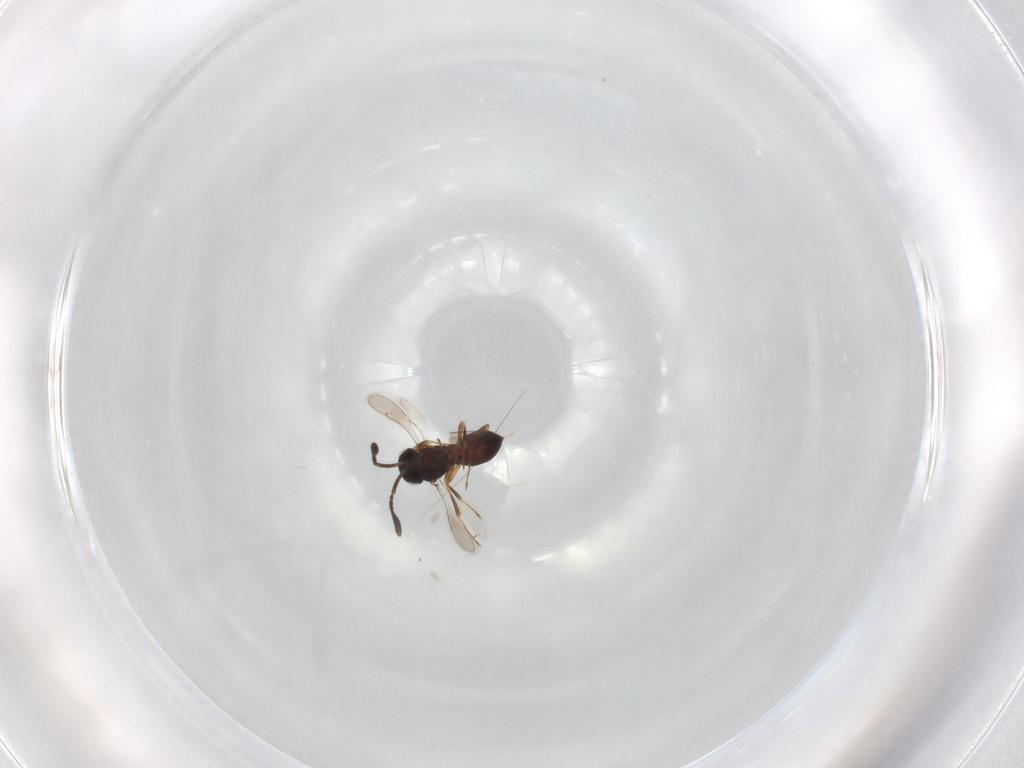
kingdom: Animalia
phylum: Arthropoda
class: Insecta
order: Hymenoptera
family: Scelionidae
